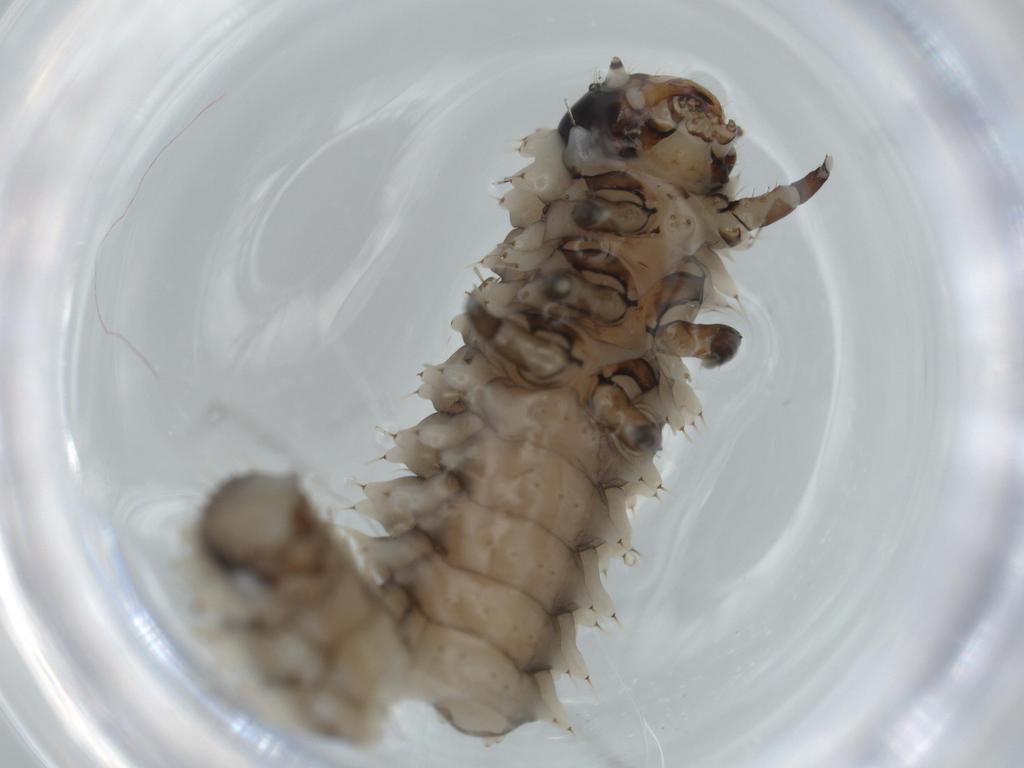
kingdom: Animalia
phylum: Arthropoda
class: Insecta
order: Coleoptera
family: Chrysomelidae
